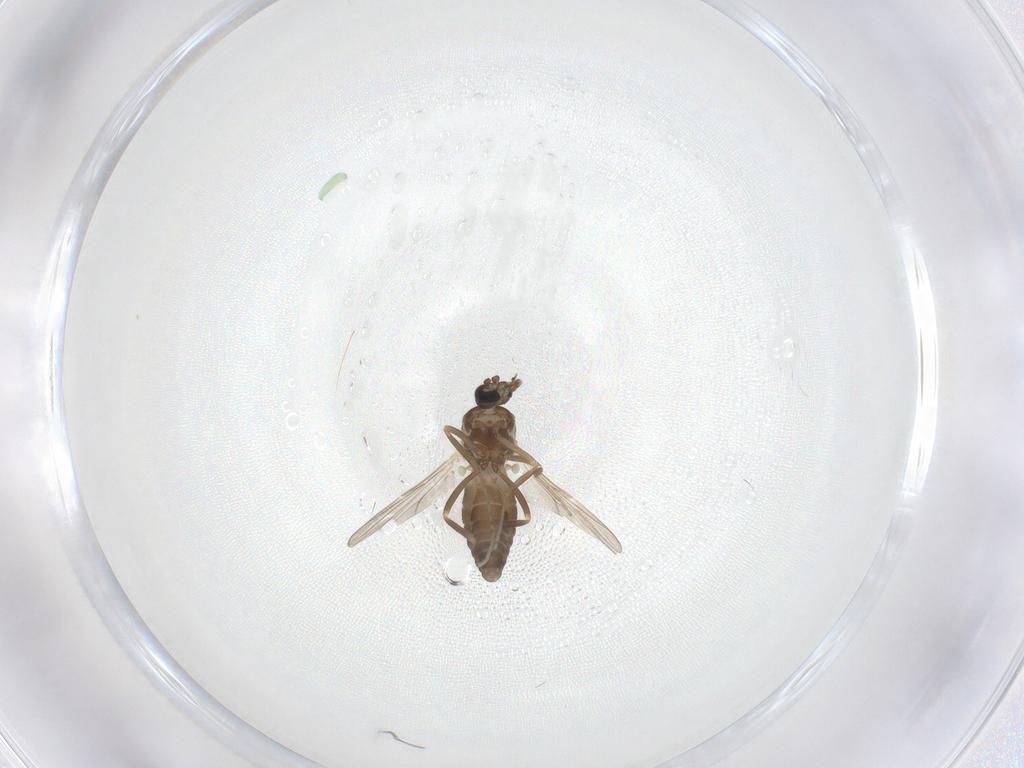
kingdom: Animalia
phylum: Arthropoda
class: Insecta
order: Diptera
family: Ceratopogonidae
